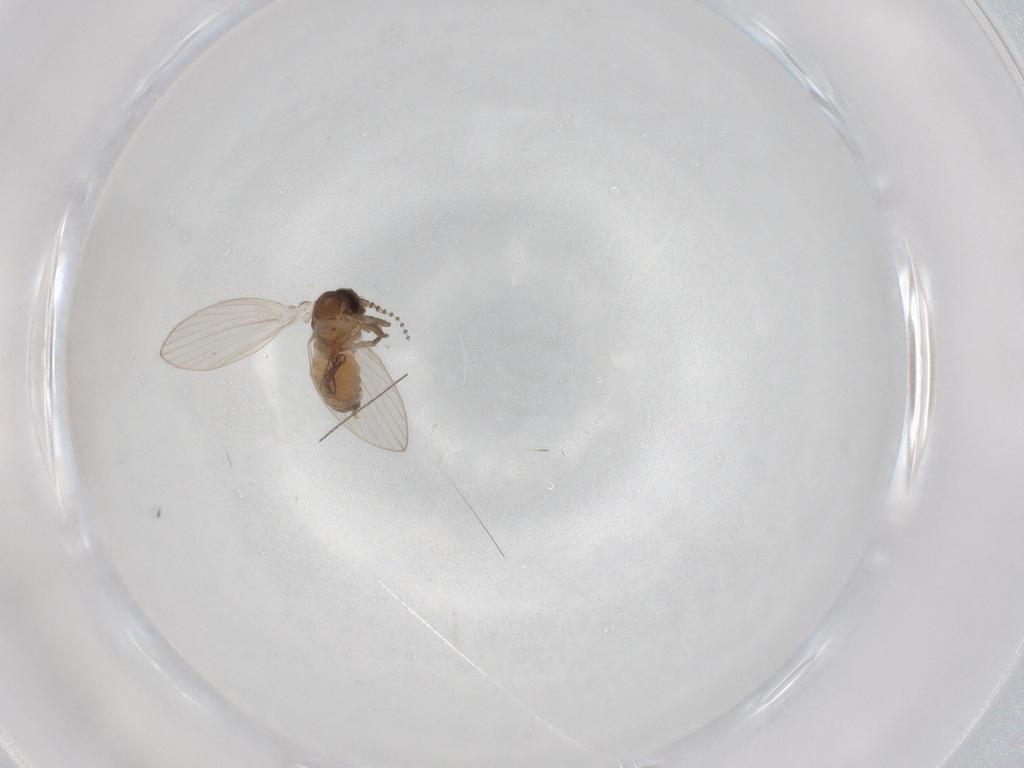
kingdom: Animalia
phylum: Arthropoda
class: Insecta
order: Diptera
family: Psychodidae
